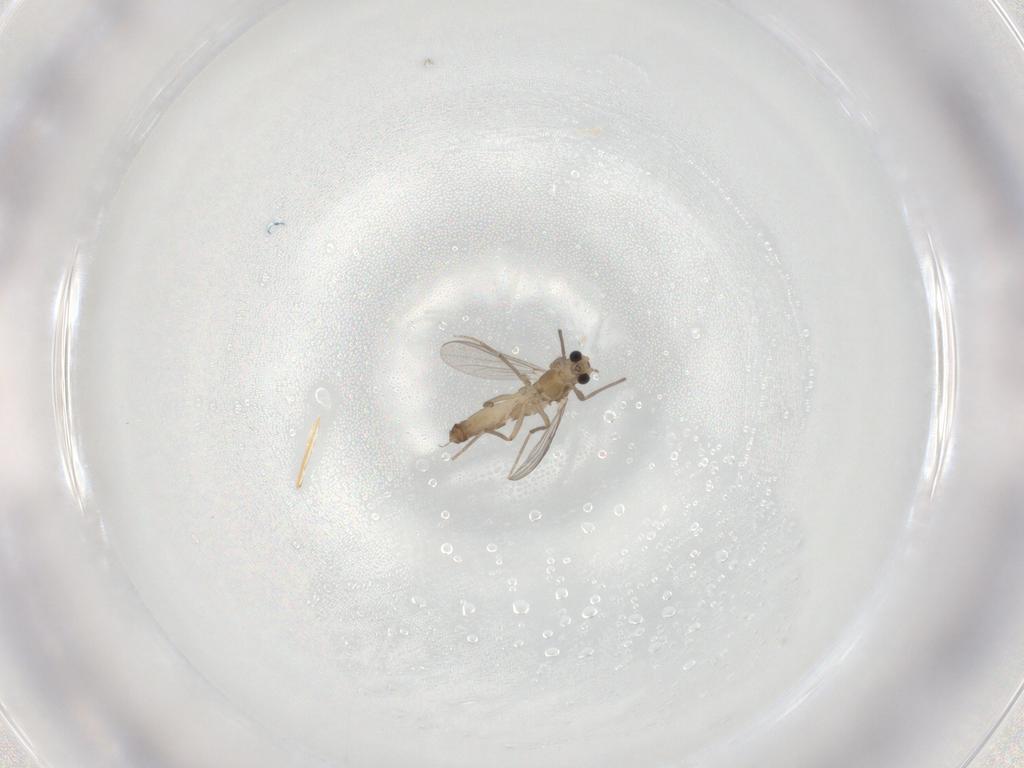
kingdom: Animalia
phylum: Arthropoda
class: Insecta
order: Diptera
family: Chironomidae
